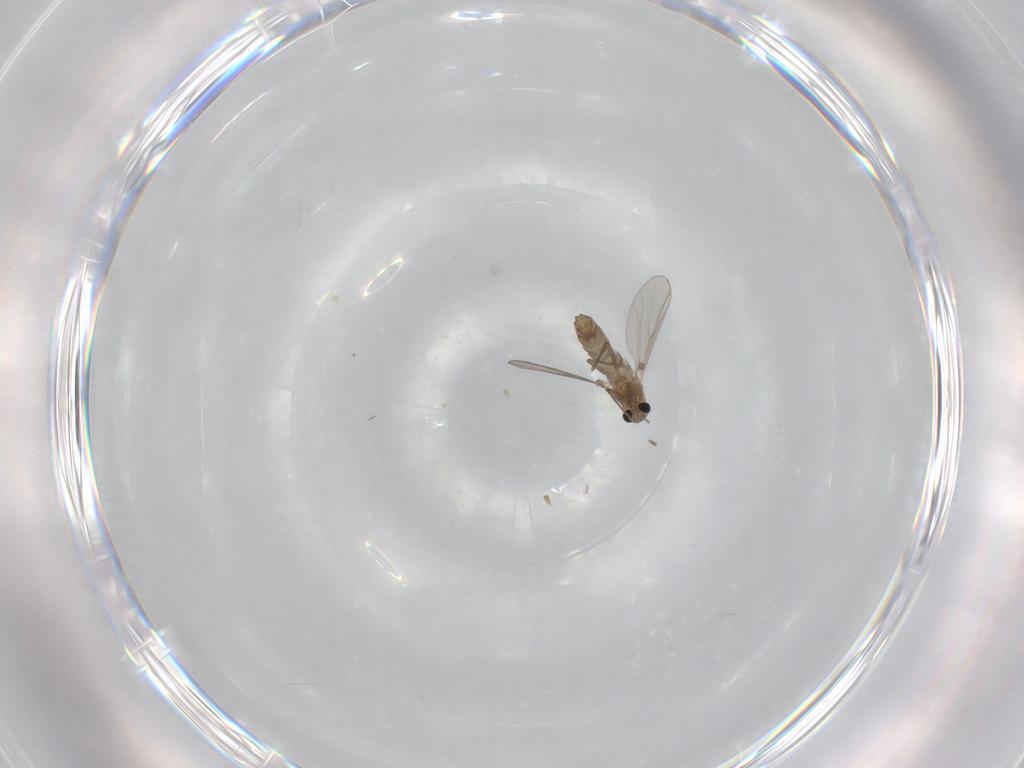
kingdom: Animalia
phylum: Arthropoda
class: Insecta
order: Diptera
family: Chironomidae
